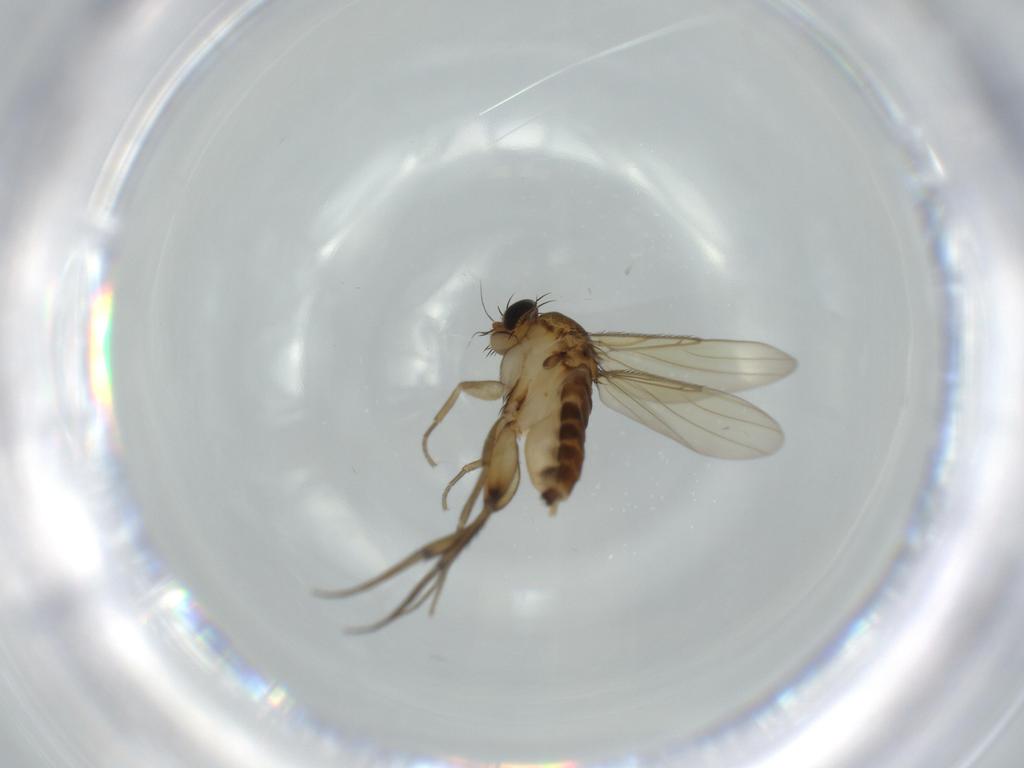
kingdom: Animalia
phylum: Arthropoda
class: Insecta
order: Diptera
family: Phoridae
